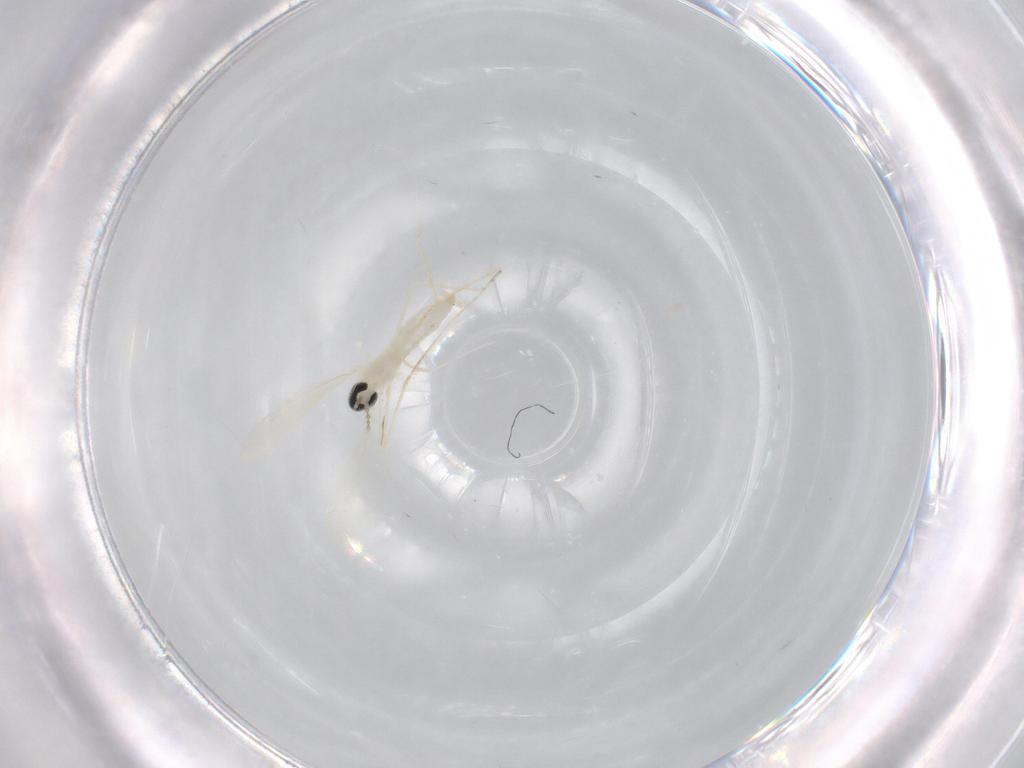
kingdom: Animalia
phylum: Arthropoda
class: Insecta
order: Diptera
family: Cecidomyiidae
